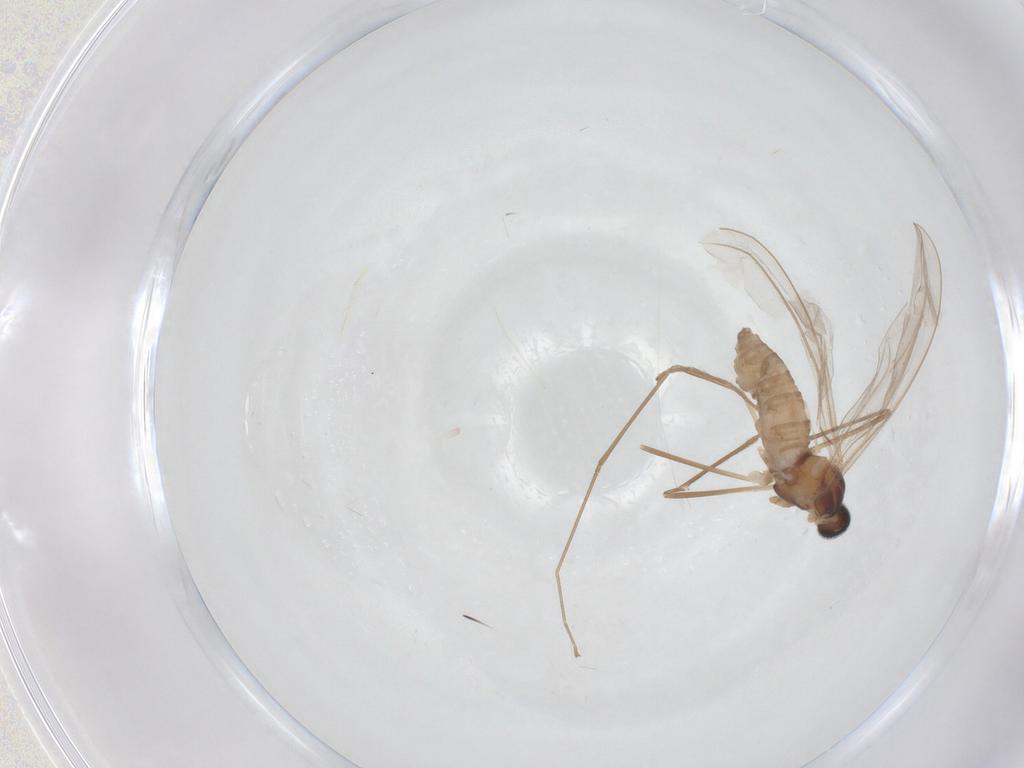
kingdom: Animalia
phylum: Arthropoda
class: Insecta
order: Diptera
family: Cecidomyiidae
